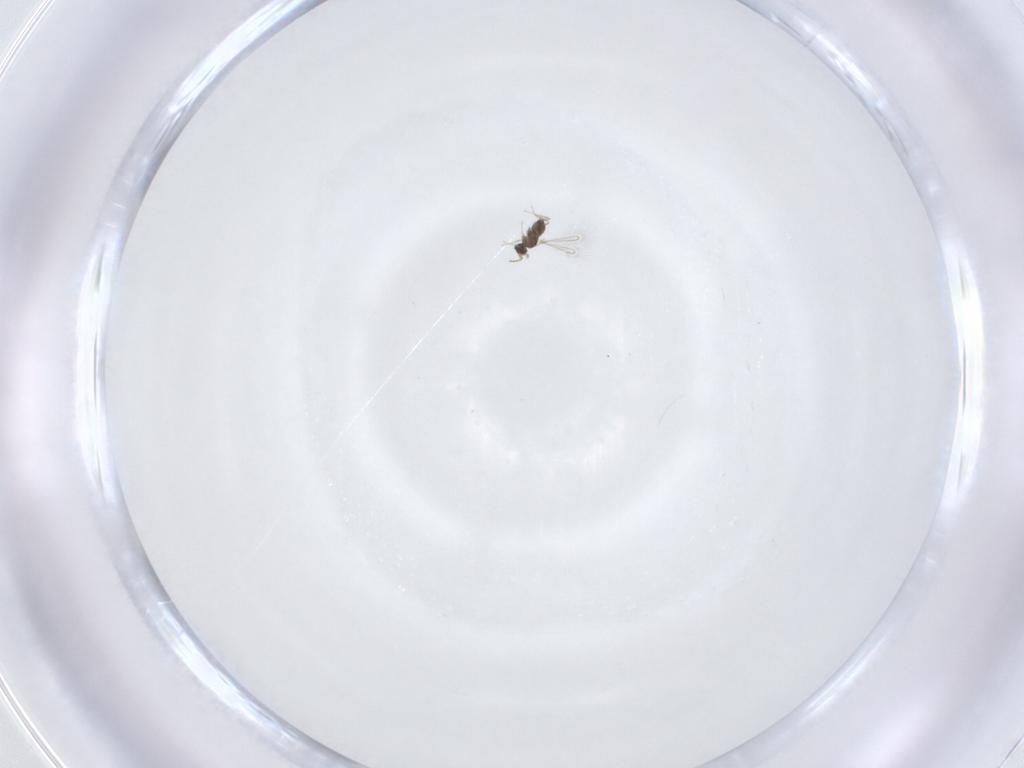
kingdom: Animalia
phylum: Arthropoda
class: Insecta
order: Hymenoptera
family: Mymaridae
